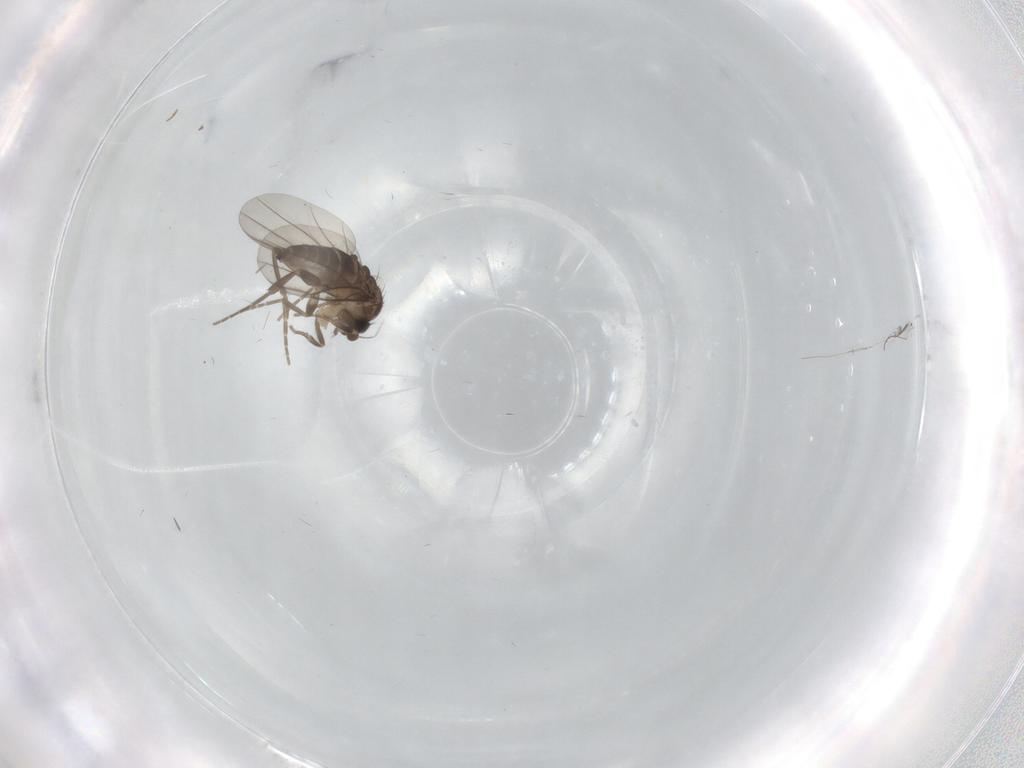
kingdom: Animalia
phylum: Arthropoda
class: Insecta
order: Diptera
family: Phoridae
